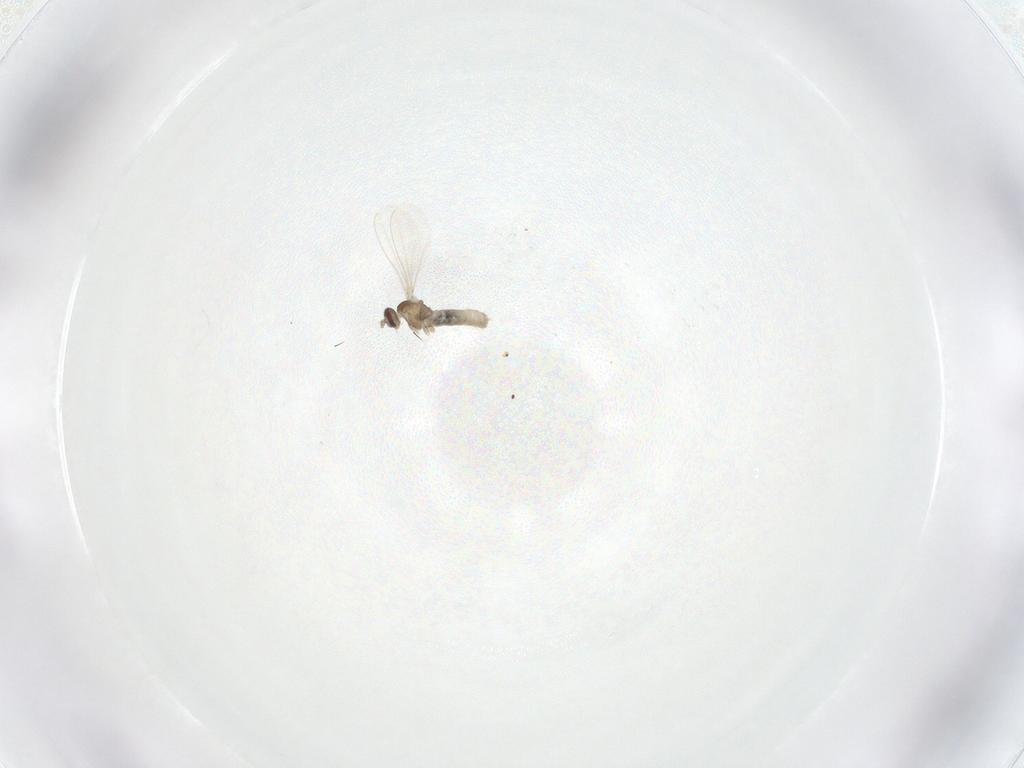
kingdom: Animalia
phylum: Arthropoda
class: Insecta
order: Diptera
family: Cecidomyiidae
